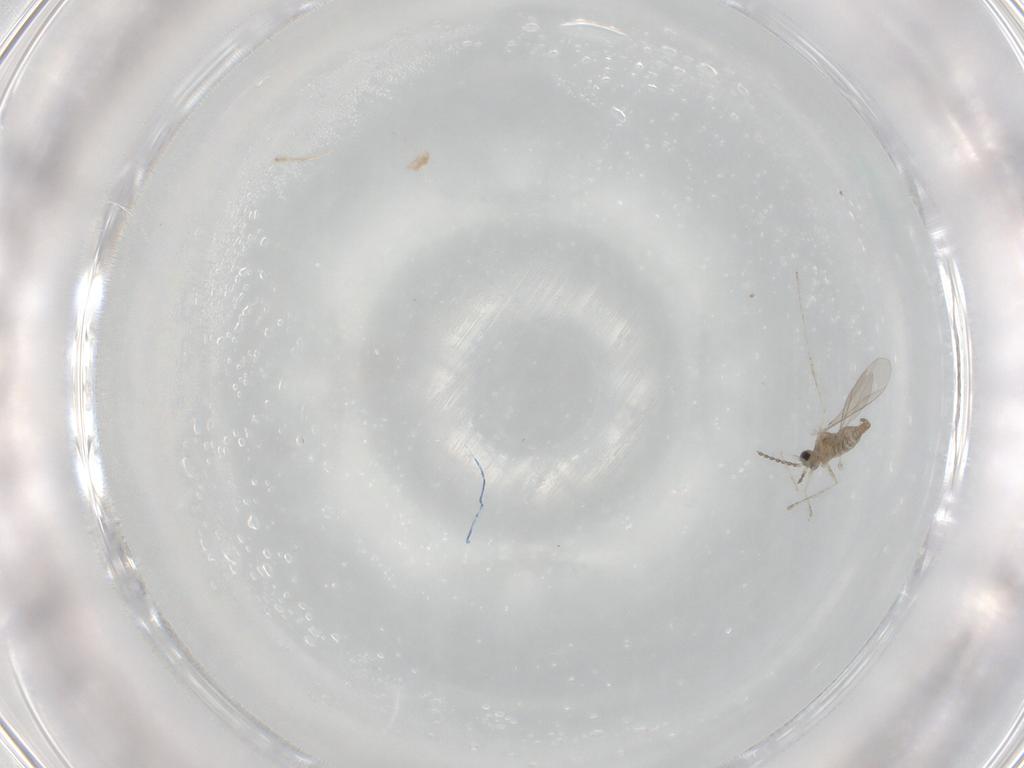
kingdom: Animalia
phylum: Arthropoda
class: Insecta
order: Diptera
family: Cecidomyiidae
